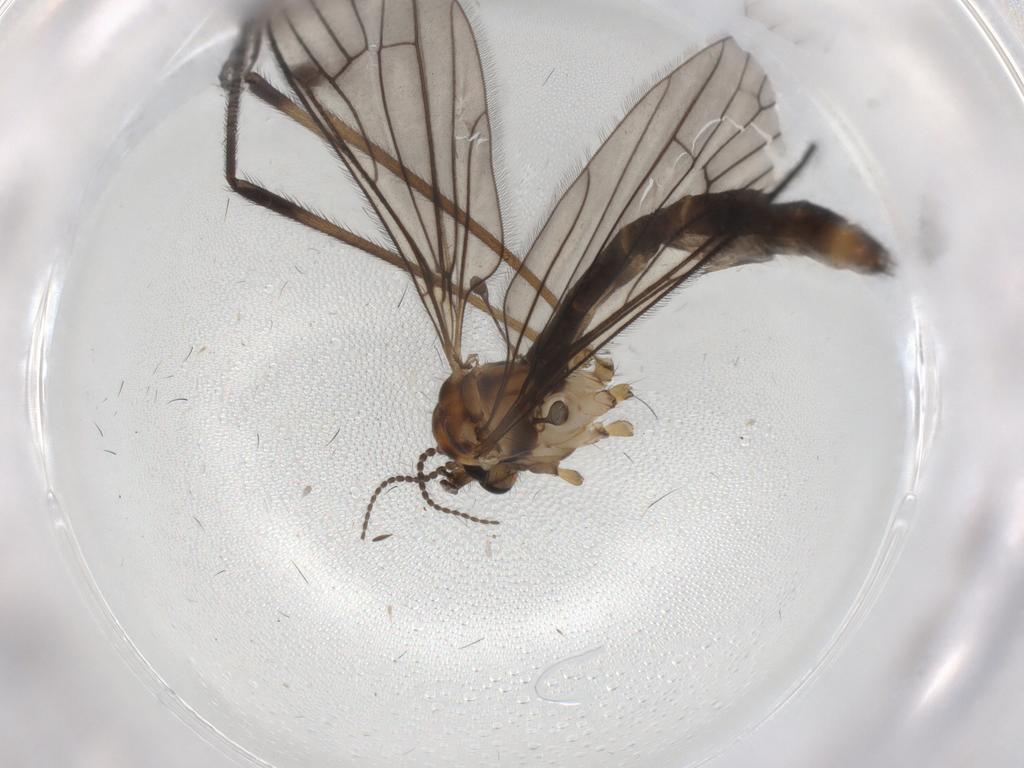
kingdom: Animalia
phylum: Arthropoda
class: Insecta
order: Diptera
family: Limoniidae
